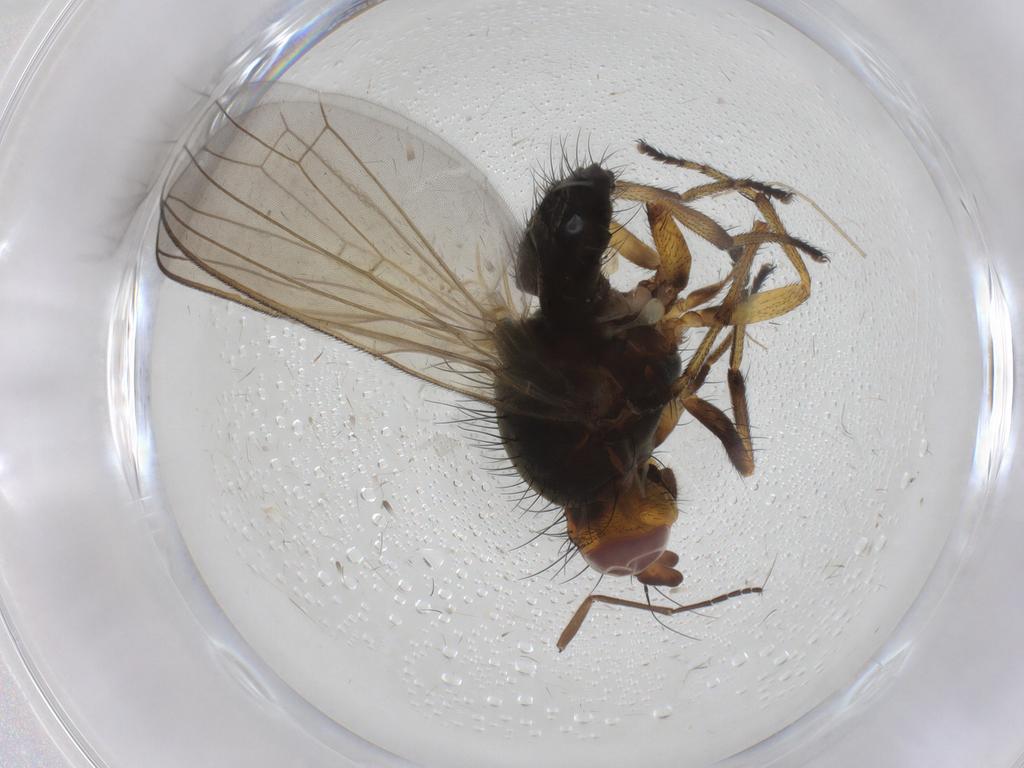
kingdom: Animalia
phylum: Arthropoda
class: Insecta
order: Diptera
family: Chironomidae
